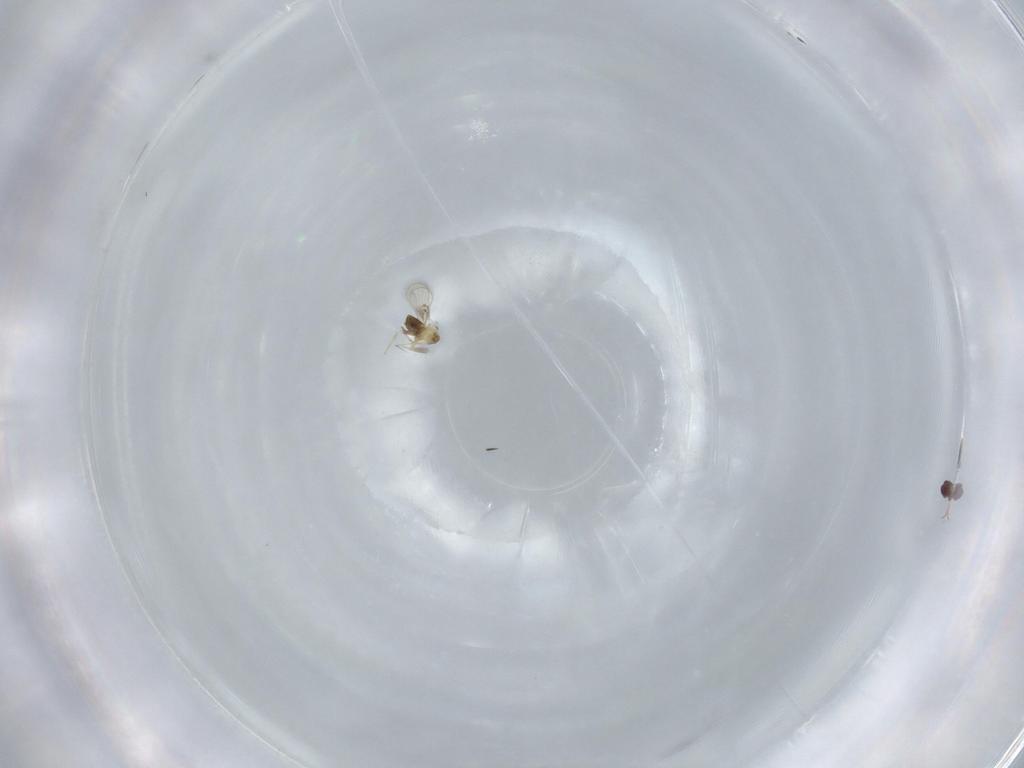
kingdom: Animalia
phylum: Arthropoda
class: Insecta
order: Hymenoptera
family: Trichogrammatidae
